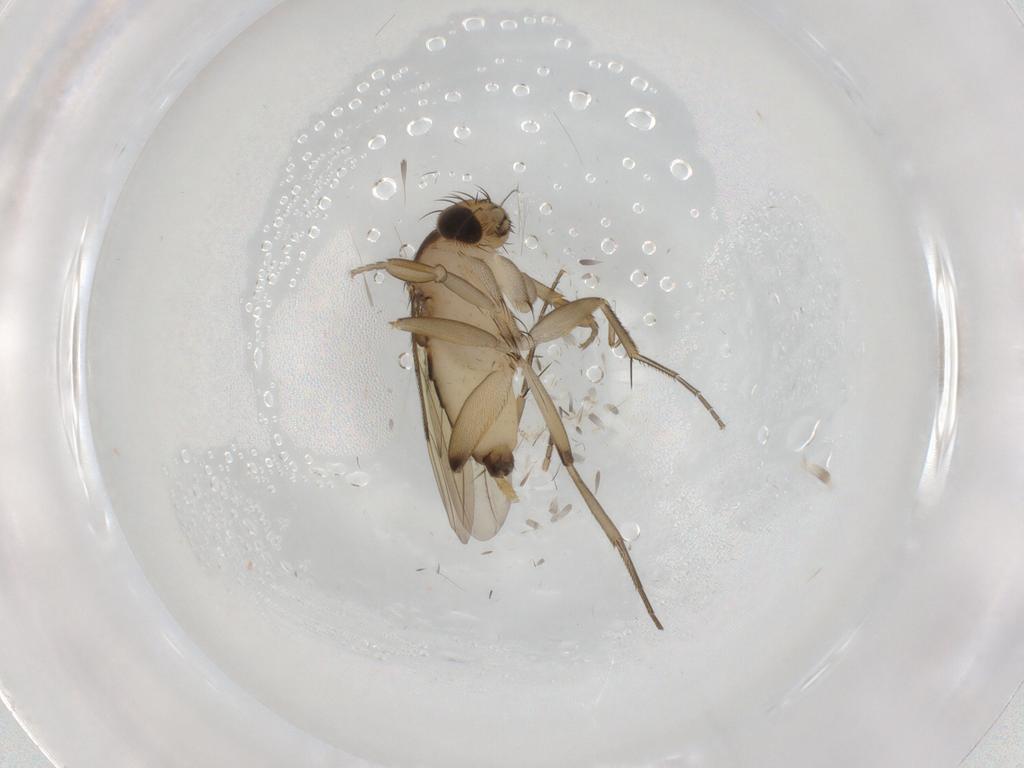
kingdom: Animalia
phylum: Arthropoda
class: Insecta
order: Diptera
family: Phoridae
